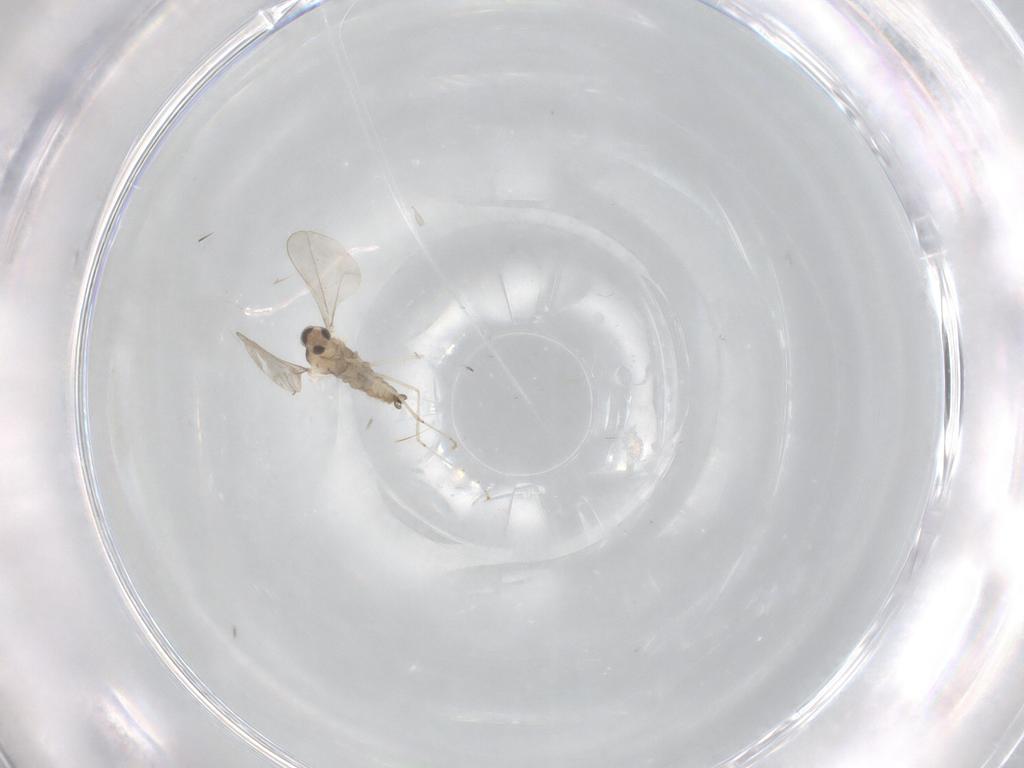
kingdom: Animalia
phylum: Arthropoda
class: Insecta
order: Diptera
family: Cecidomyiidae
